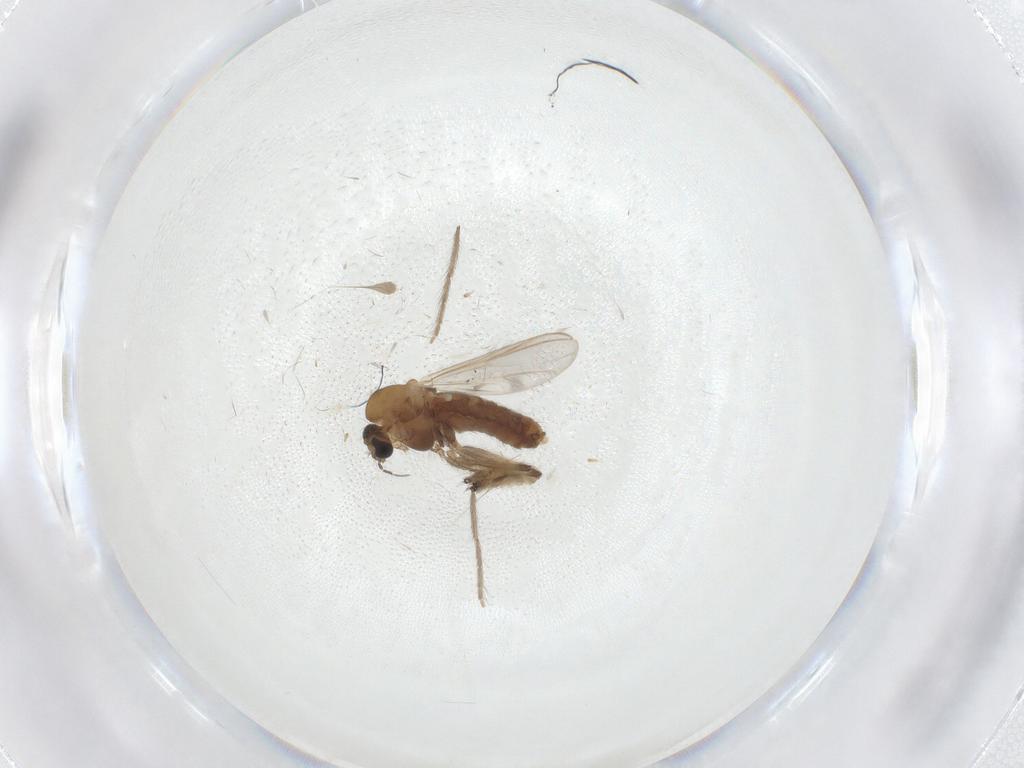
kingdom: Animalia
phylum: Arthropoda
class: Insecta
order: Diptera
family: Chironomidae
